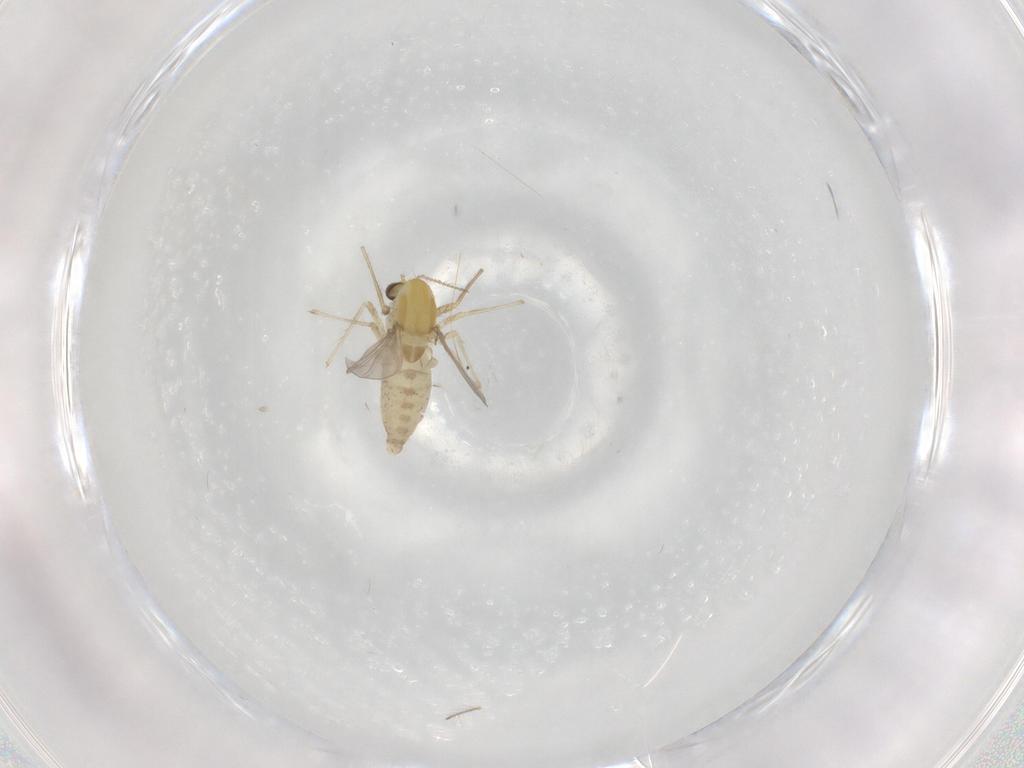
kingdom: Animalia
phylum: Arthropoda
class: Insecta
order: Diptera
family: Chironomidae
